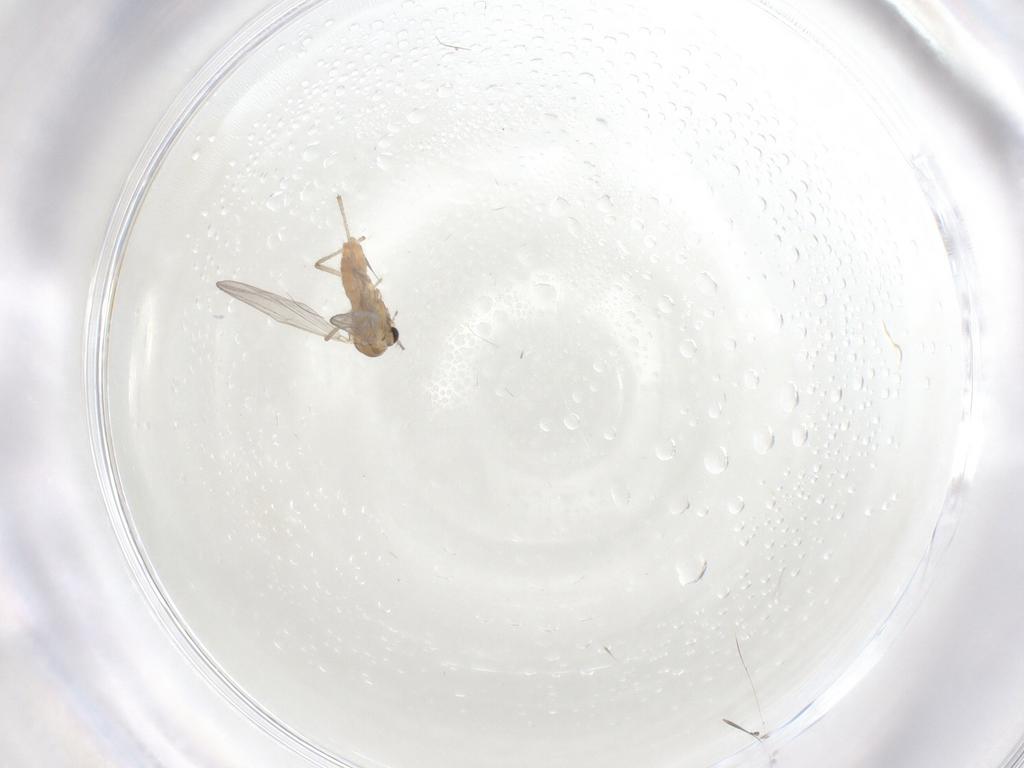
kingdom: Animalia
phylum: Arthropoda
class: Insecta
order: Diptera
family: Chironomidae
